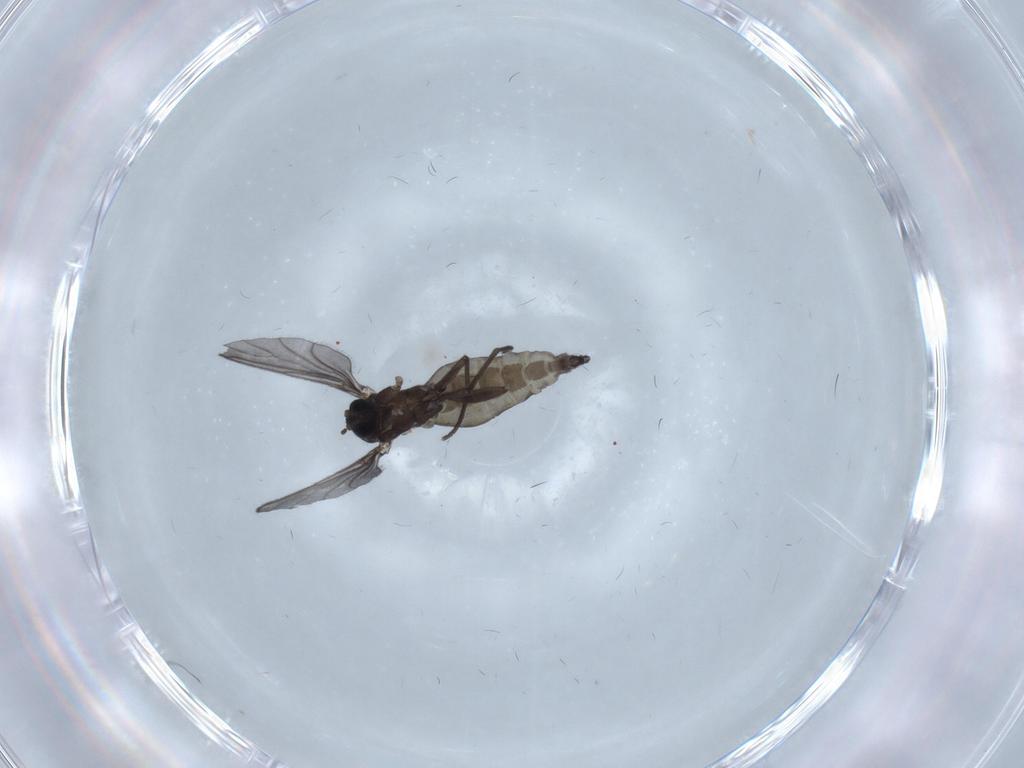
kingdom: Animalia
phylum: Arthropoda
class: Insecta
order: Diptera
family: Sciaridae
